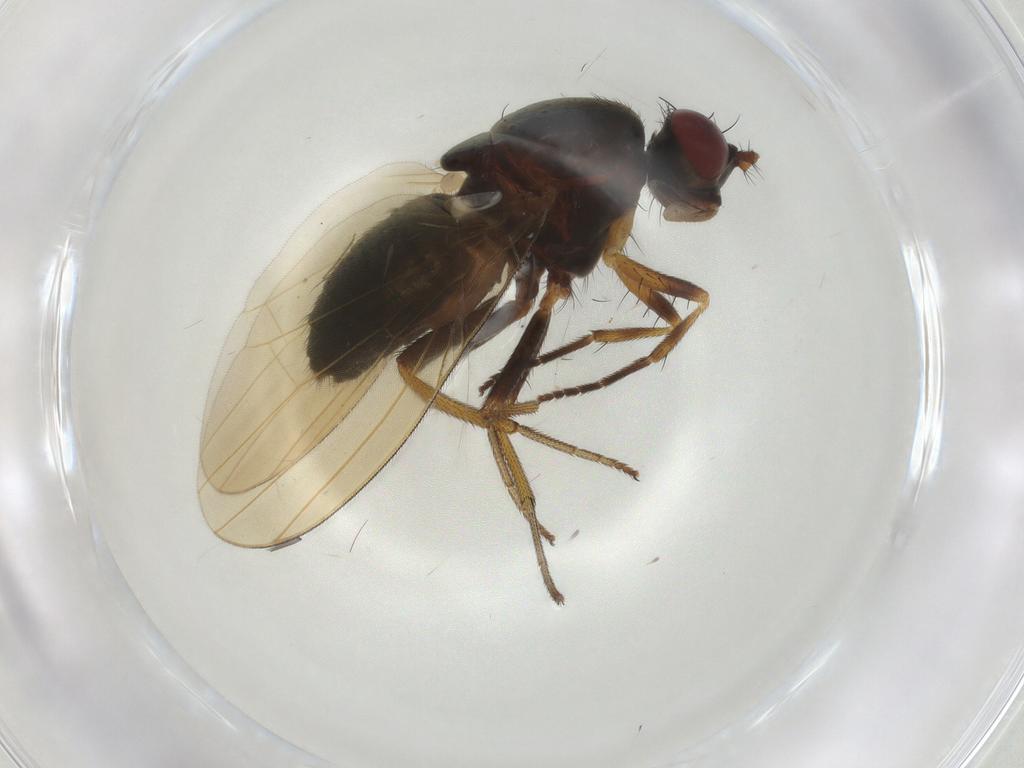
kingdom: Animalia
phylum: Arthropoda
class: Insecta
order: Diptera
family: Muscidae
